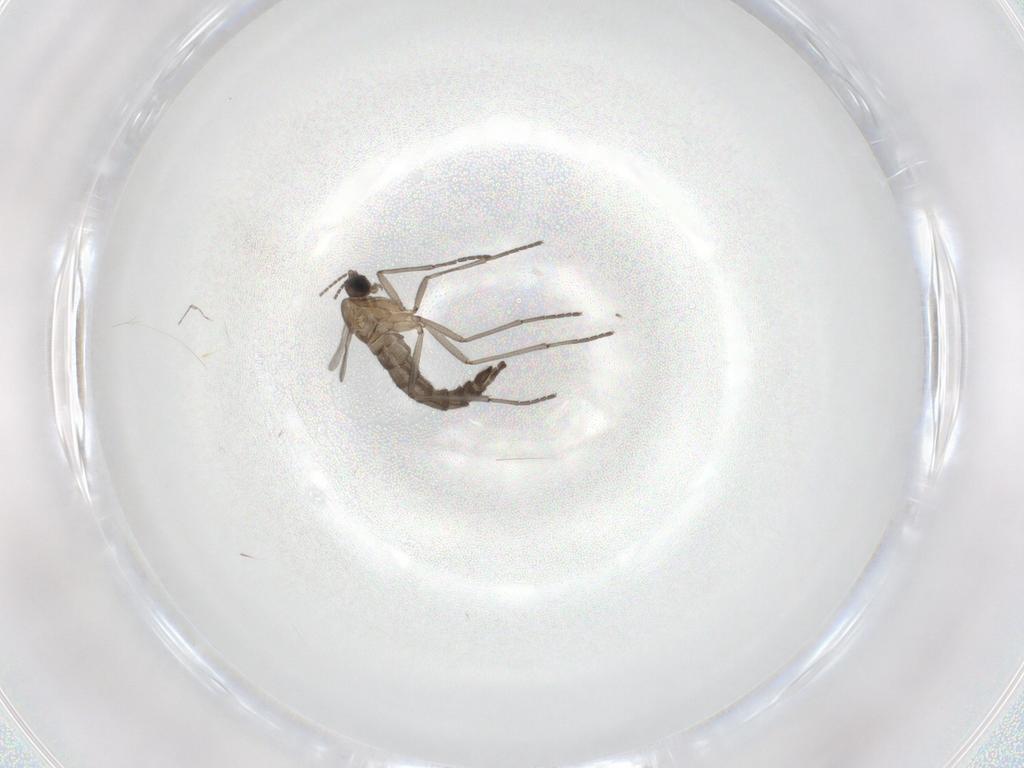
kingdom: Animalia
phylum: Arthropoda
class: Insecta
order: Diptera
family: Sciaridae
